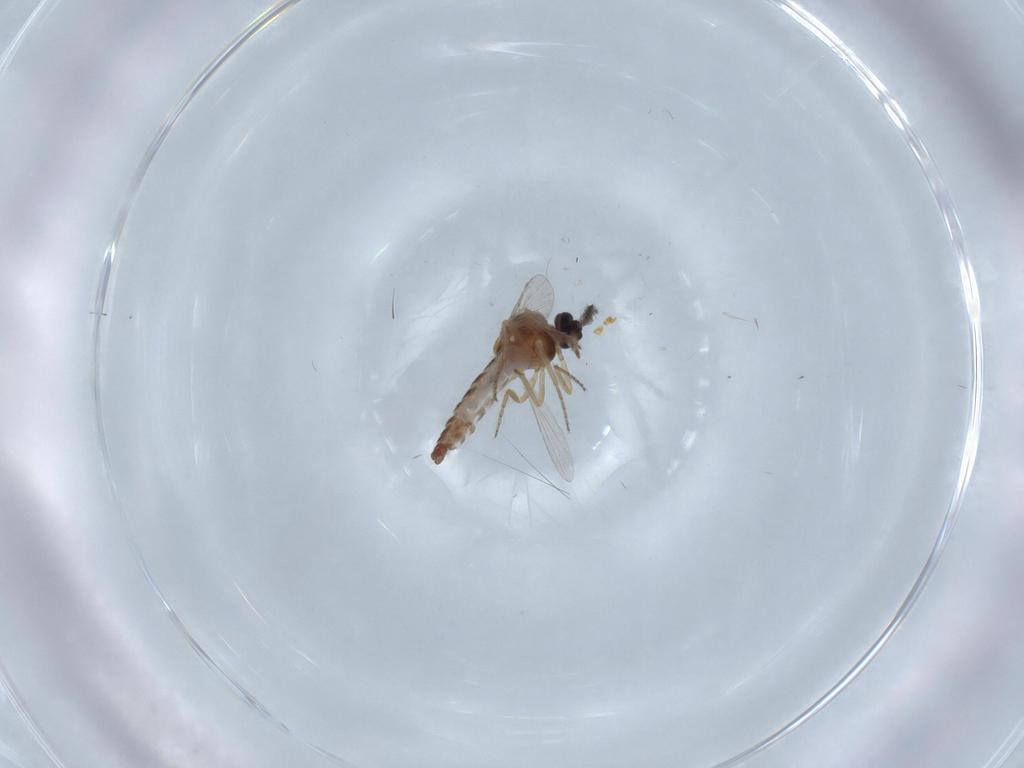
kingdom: Animalia
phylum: Arthropoda
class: Insecta
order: Diptera
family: Ceratopogonidae
